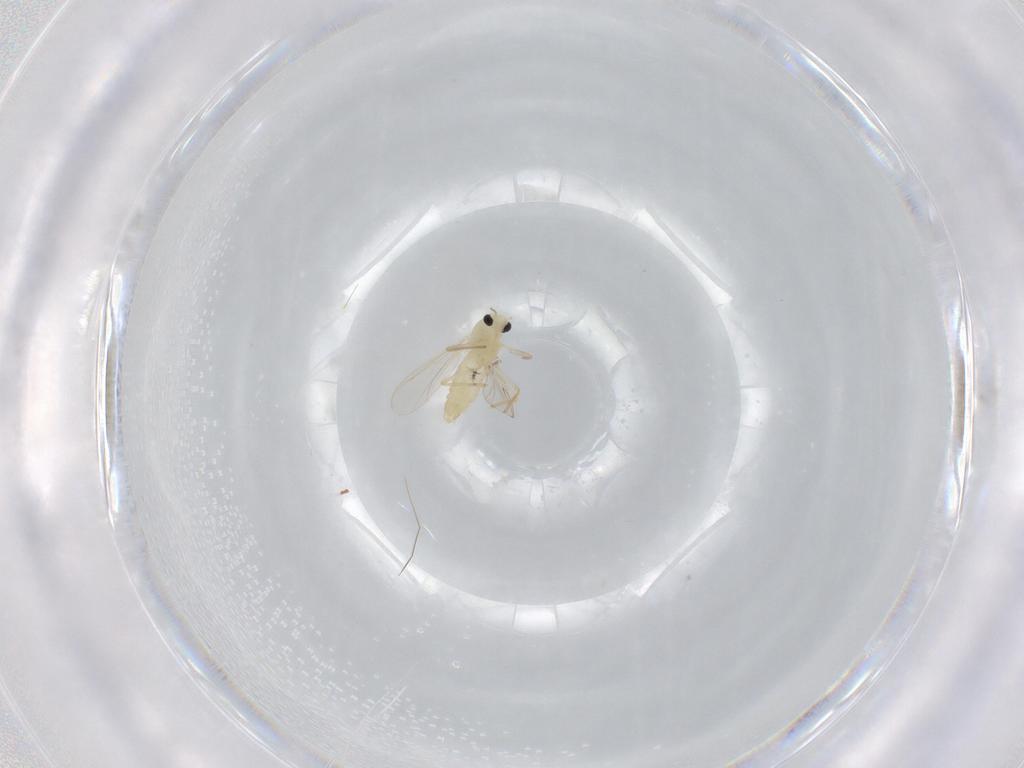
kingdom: Animalia
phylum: Arthropoda
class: Insecta
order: Diptera
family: Chironomidae
